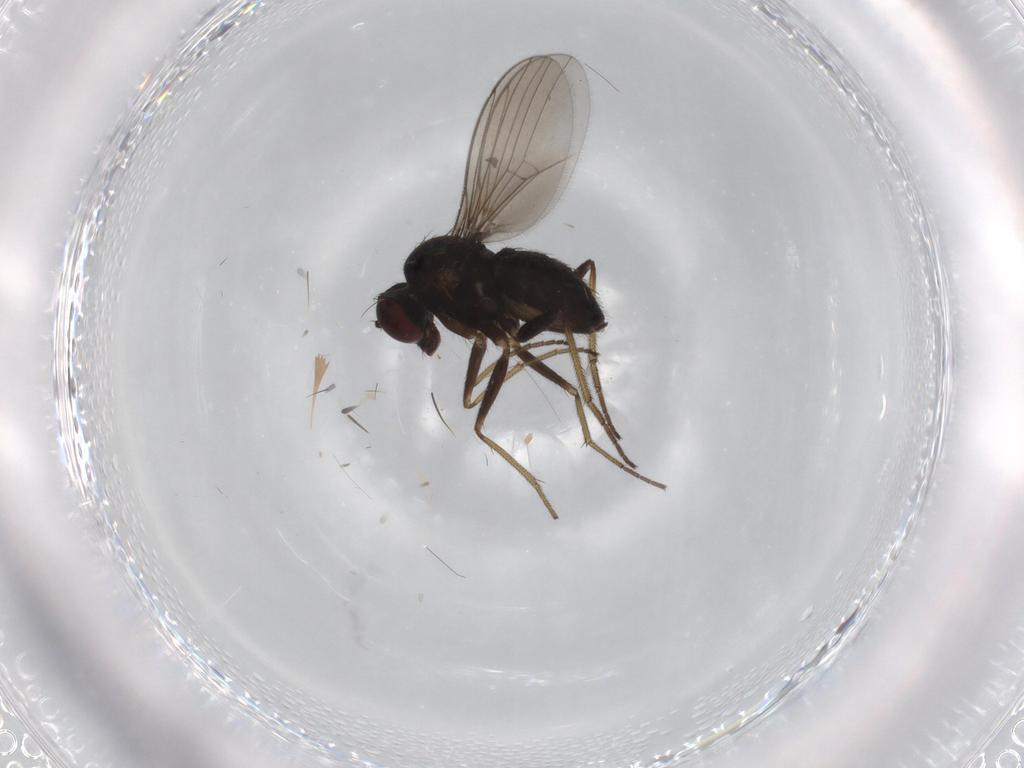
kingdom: Animalia
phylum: Arthropoda
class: Insecta
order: Diptera
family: Dolichopodidae
